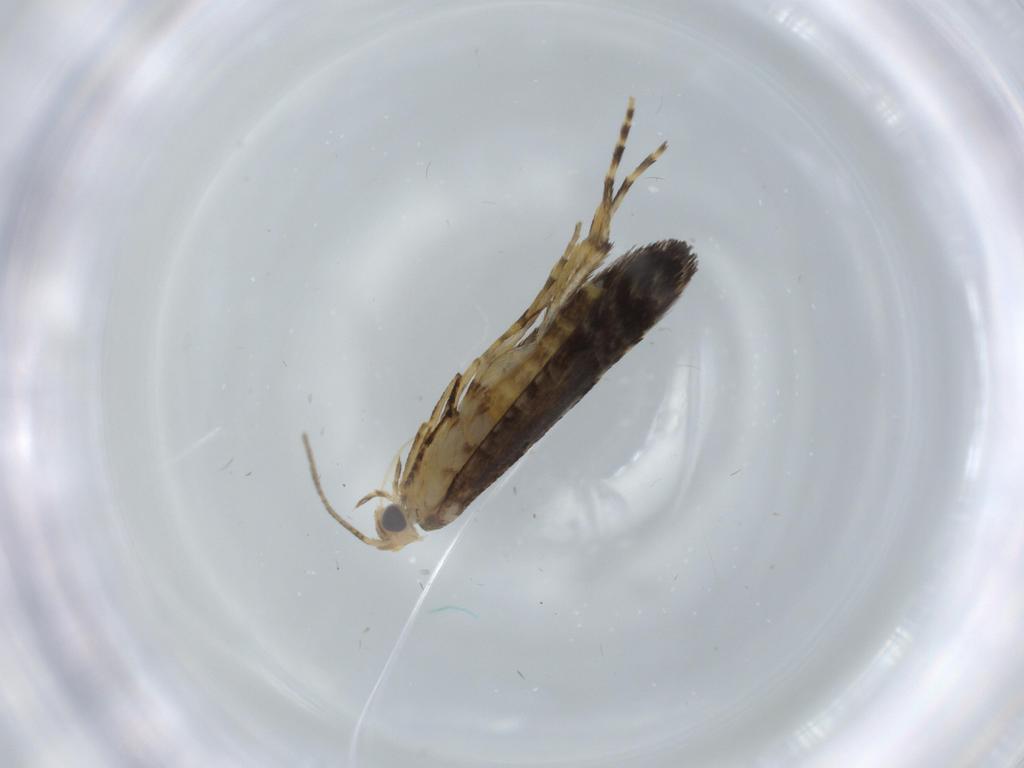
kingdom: Animalia
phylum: Arthropoda
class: Insecta
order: Lepidoptera
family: Argyresthiidae
